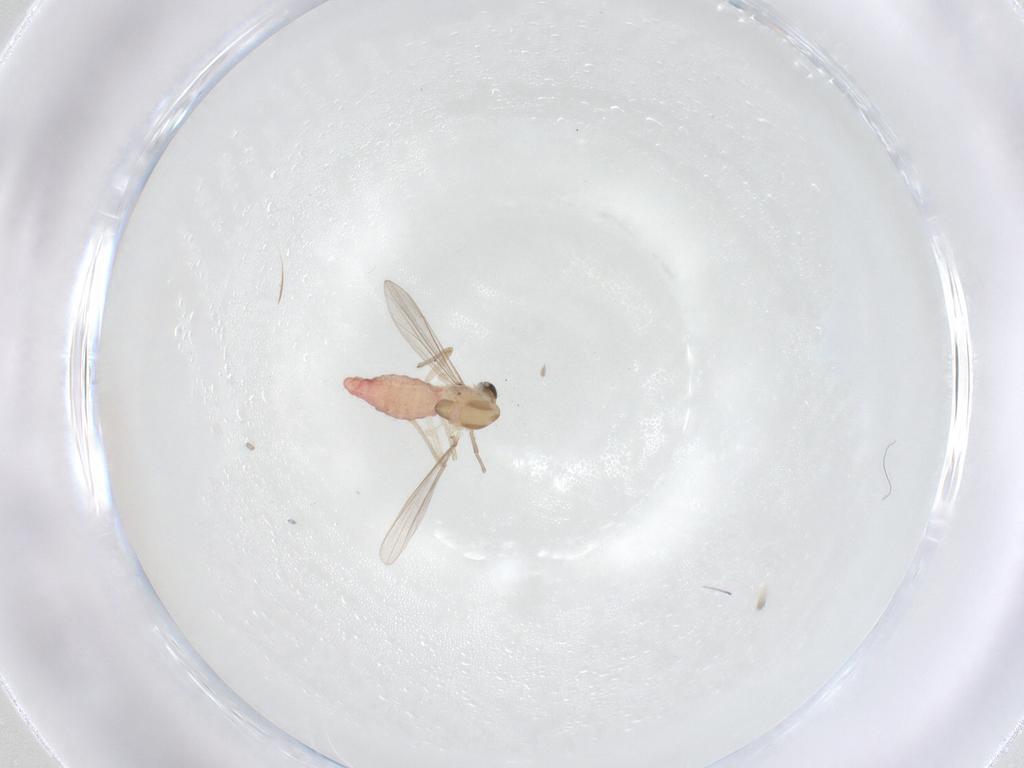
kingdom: Animalia
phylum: Arthropoda
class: Insecta
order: Diptera
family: Chironomidae
